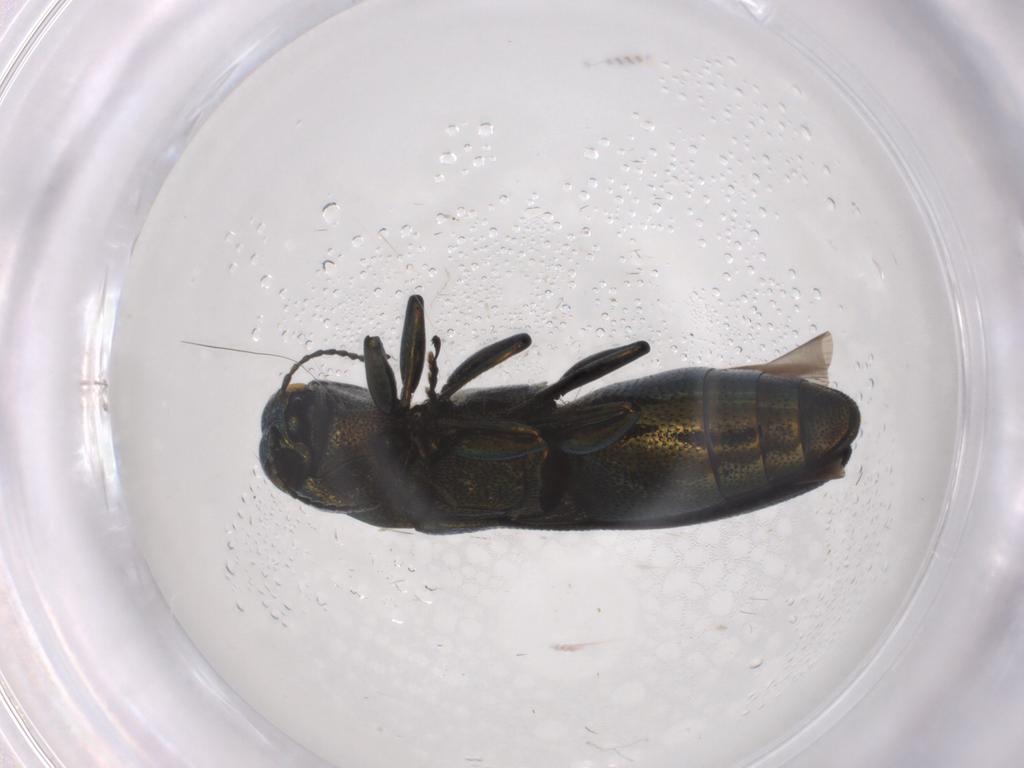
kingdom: Animalia
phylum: Arthropoda
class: Insecta
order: Coleoptera
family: Buprestidae
